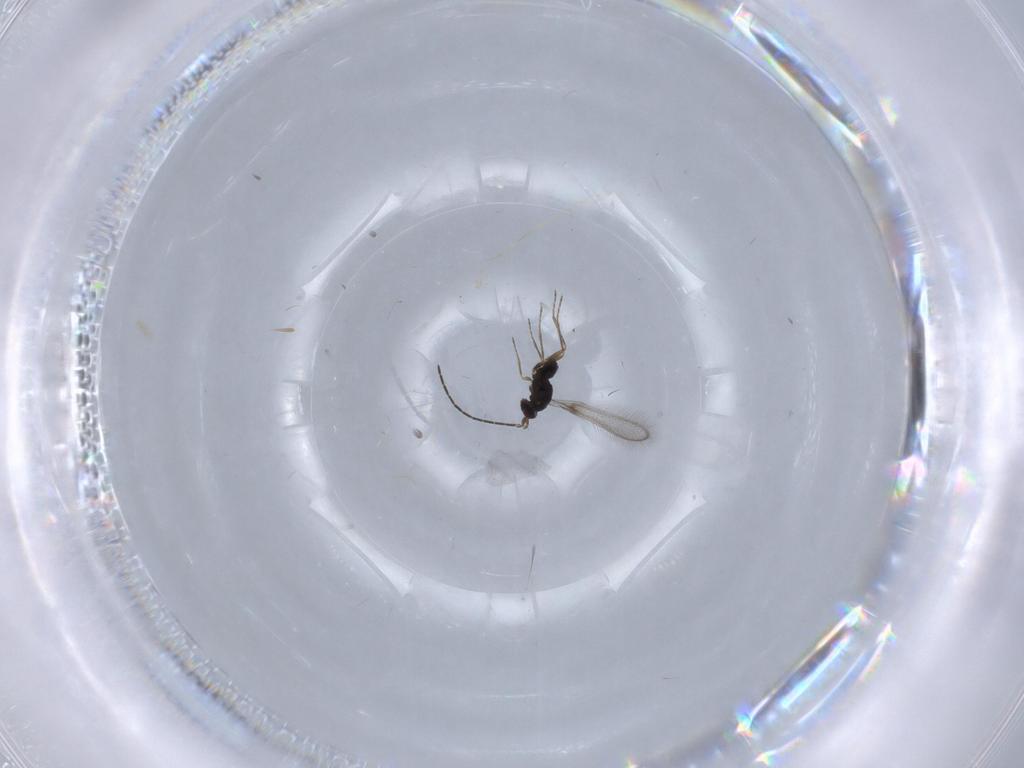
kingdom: Animalia
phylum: Arthropoda
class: Insecta
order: Hymenoptera
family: Mymaridae
